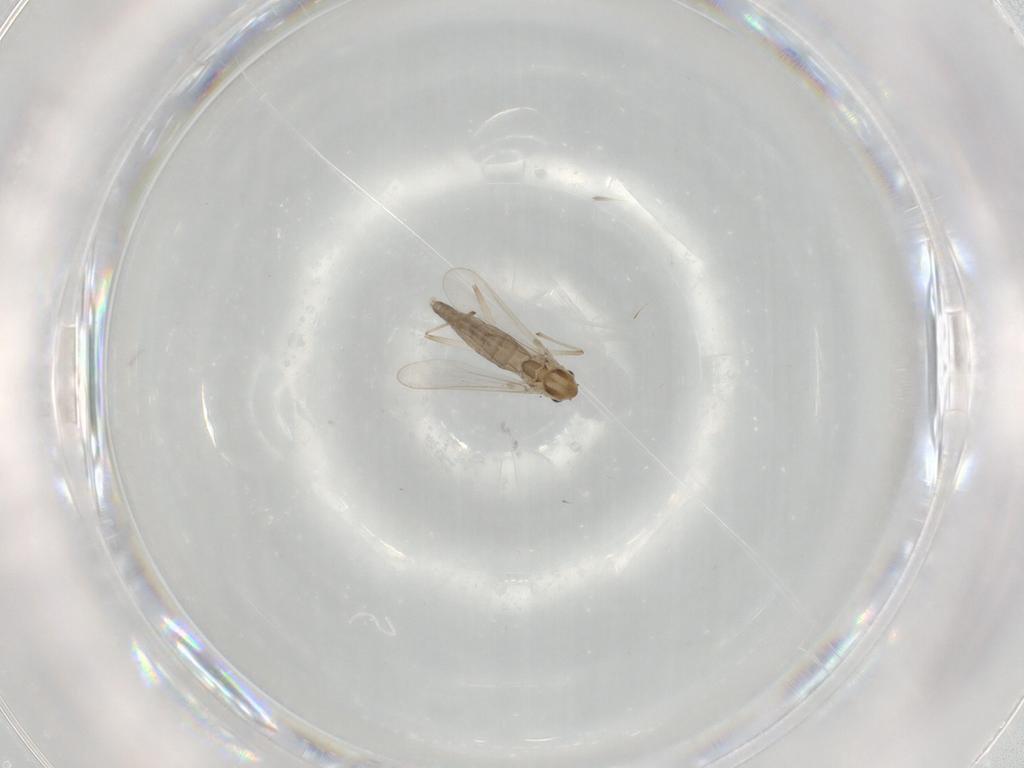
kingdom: Animalia
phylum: Arthropoda
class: Insecta
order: Diptera
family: Chironomidae
